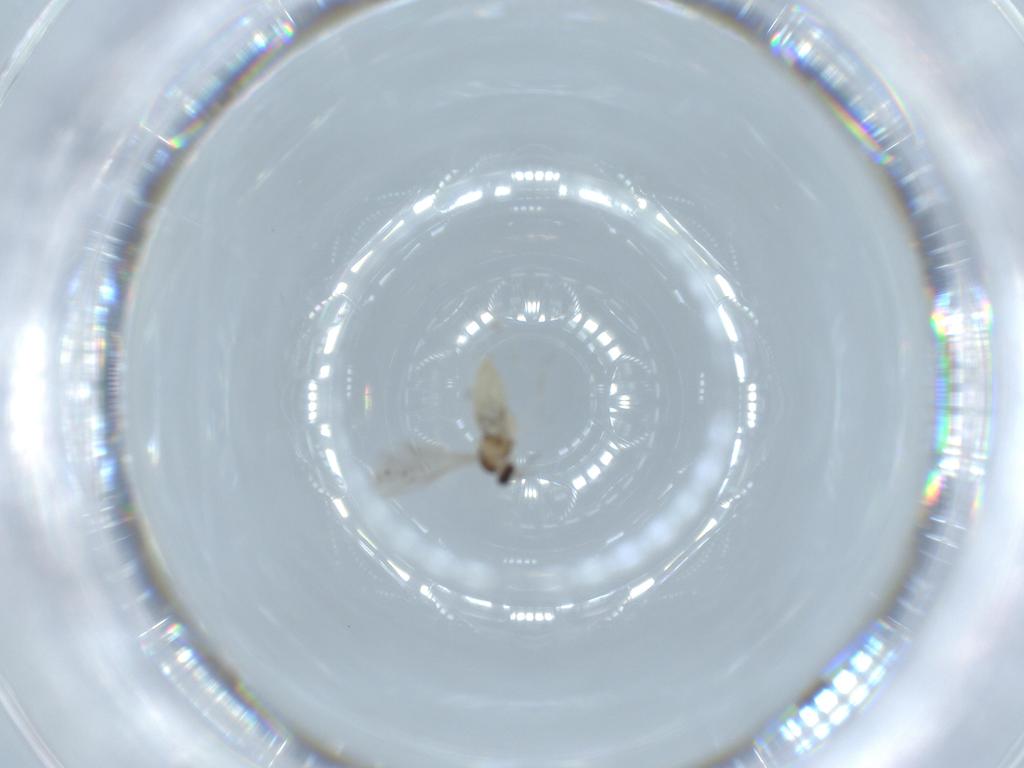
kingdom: Animalia
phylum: Arthropoda
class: Insecta
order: Diptera
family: Cecidomyiidae
